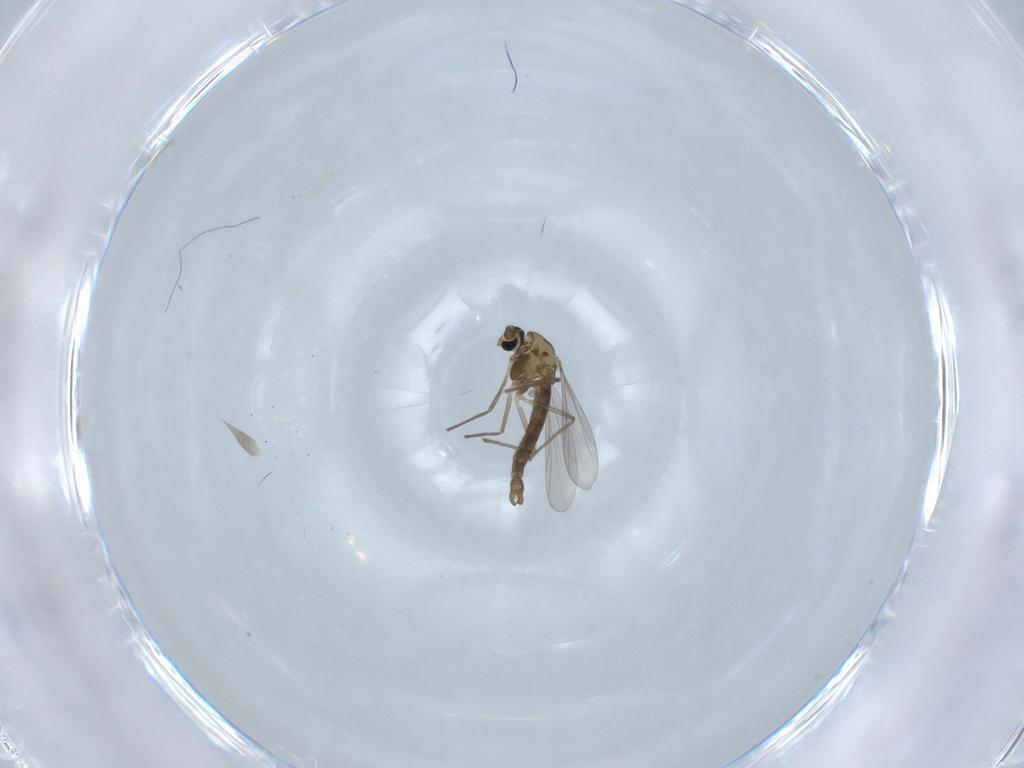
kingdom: Animalia
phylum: Arthropoda
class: Insecta
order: Diptera
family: Chironomidae
